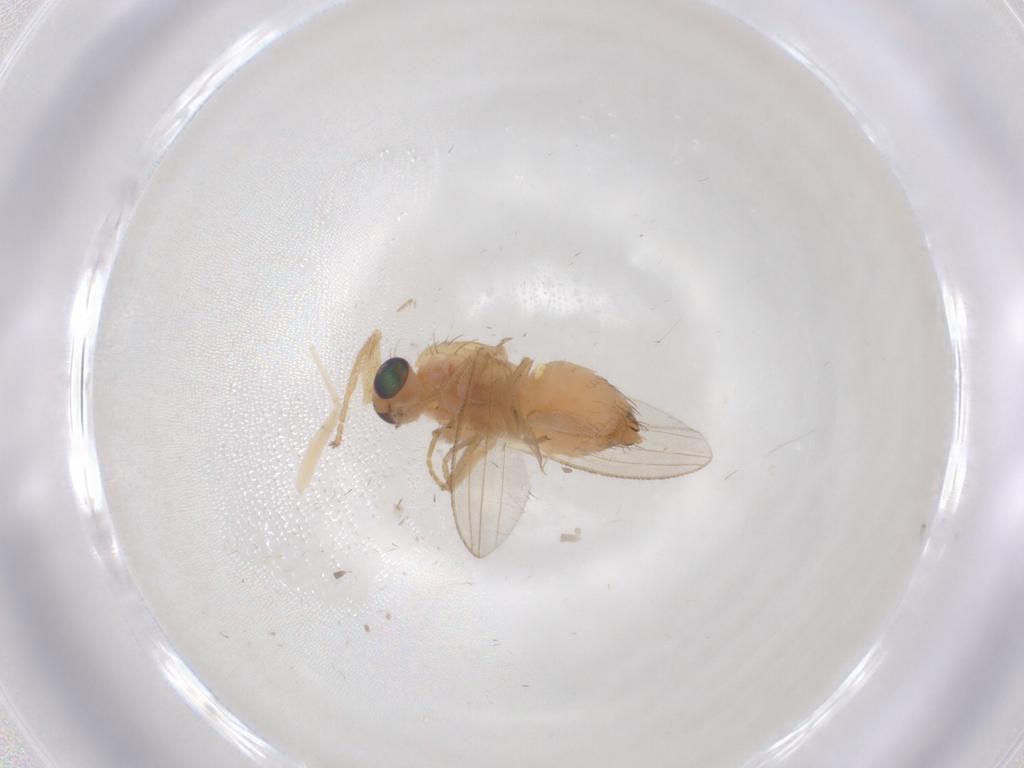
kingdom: Animalia
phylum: Arthropoda
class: Insecta
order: Diptera
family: Chyromyidae
